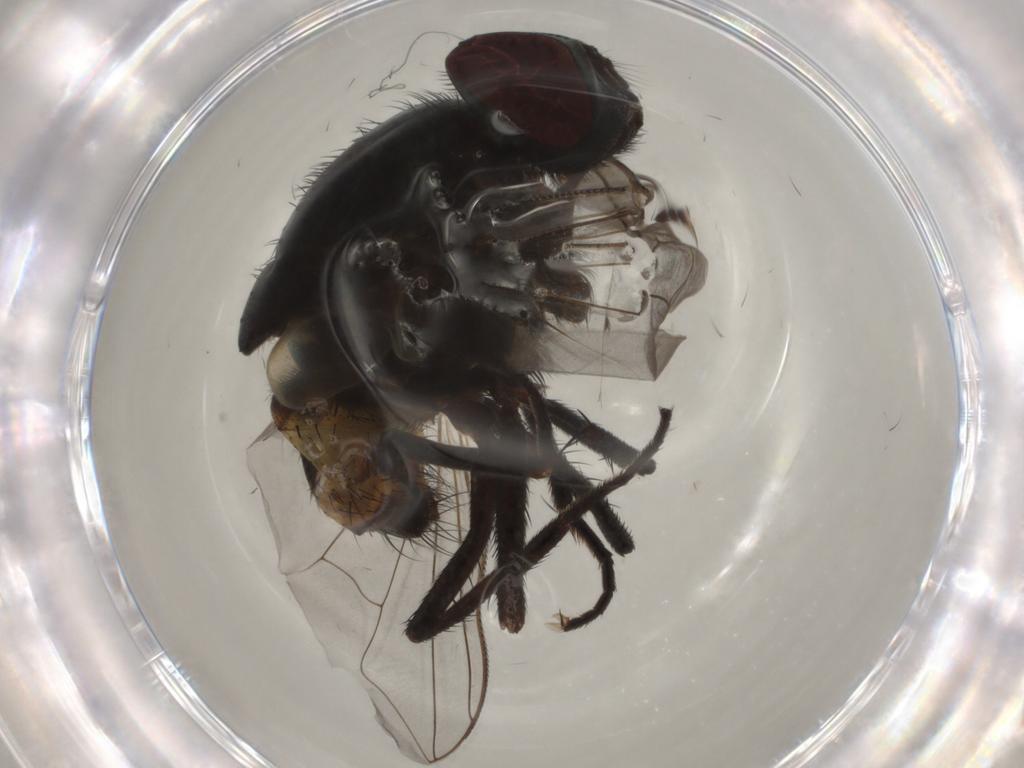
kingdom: Animalia
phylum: Arthropoda
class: Insecta
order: Diptera
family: Muscidae
